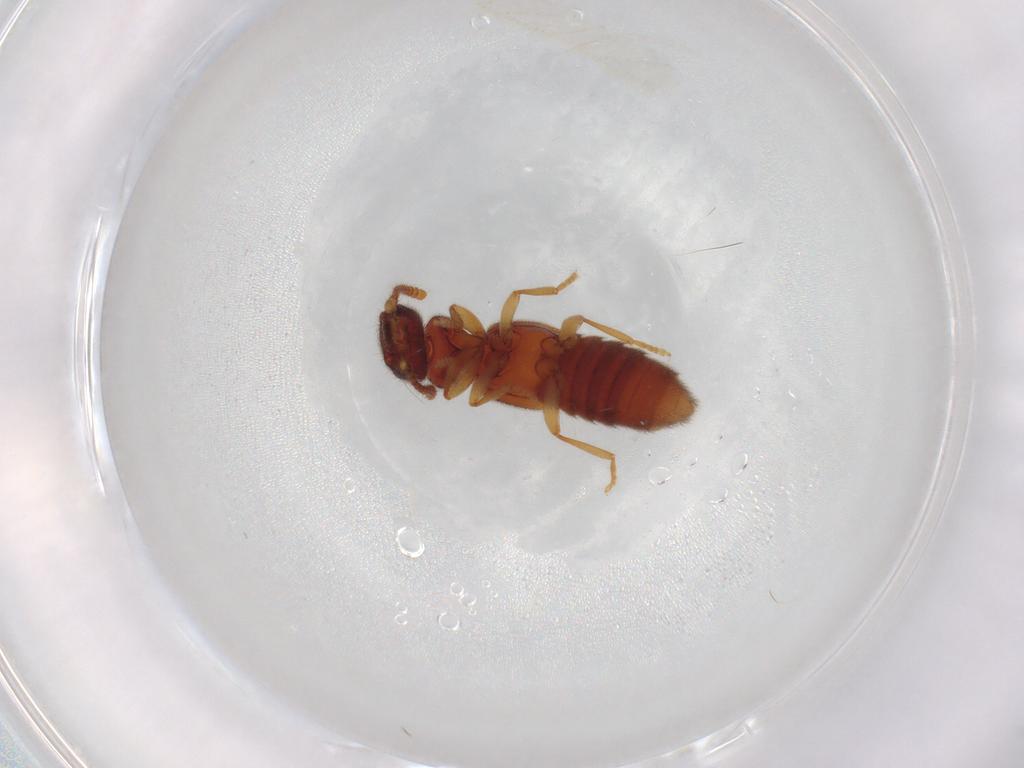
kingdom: Animalia
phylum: Arthropoda
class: Insecta
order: Coleoptera
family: Staphylinidae
